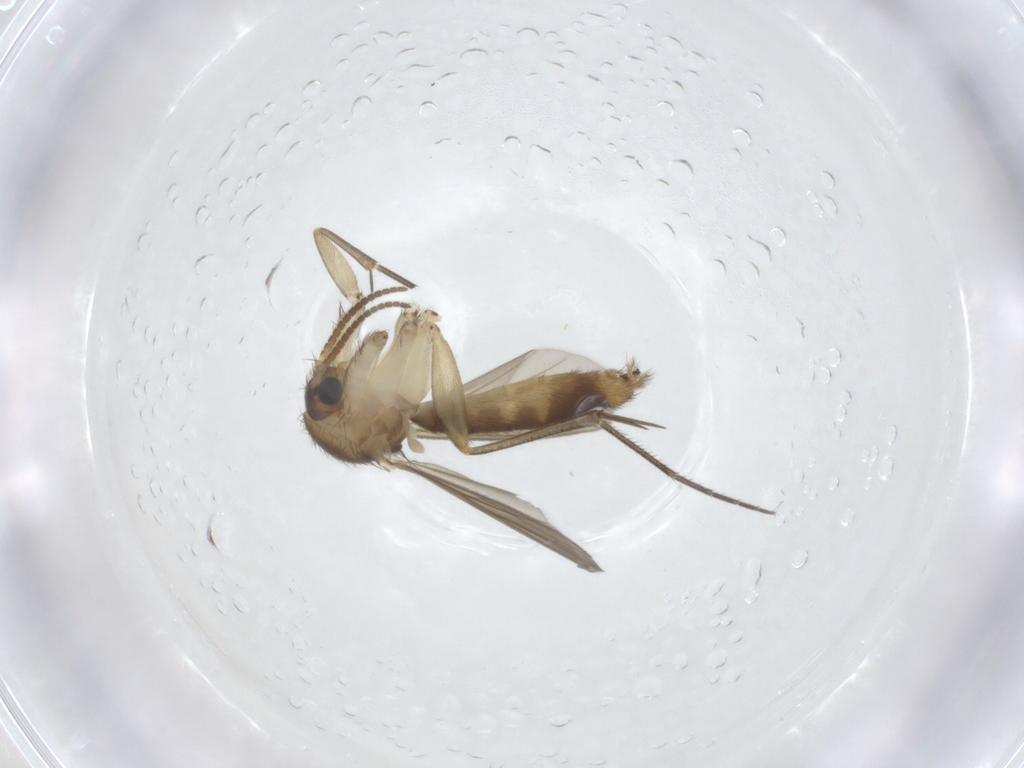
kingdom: Animalia
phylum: Arthropoda
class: Insecta
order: Diptera
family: Mycetophilidae
